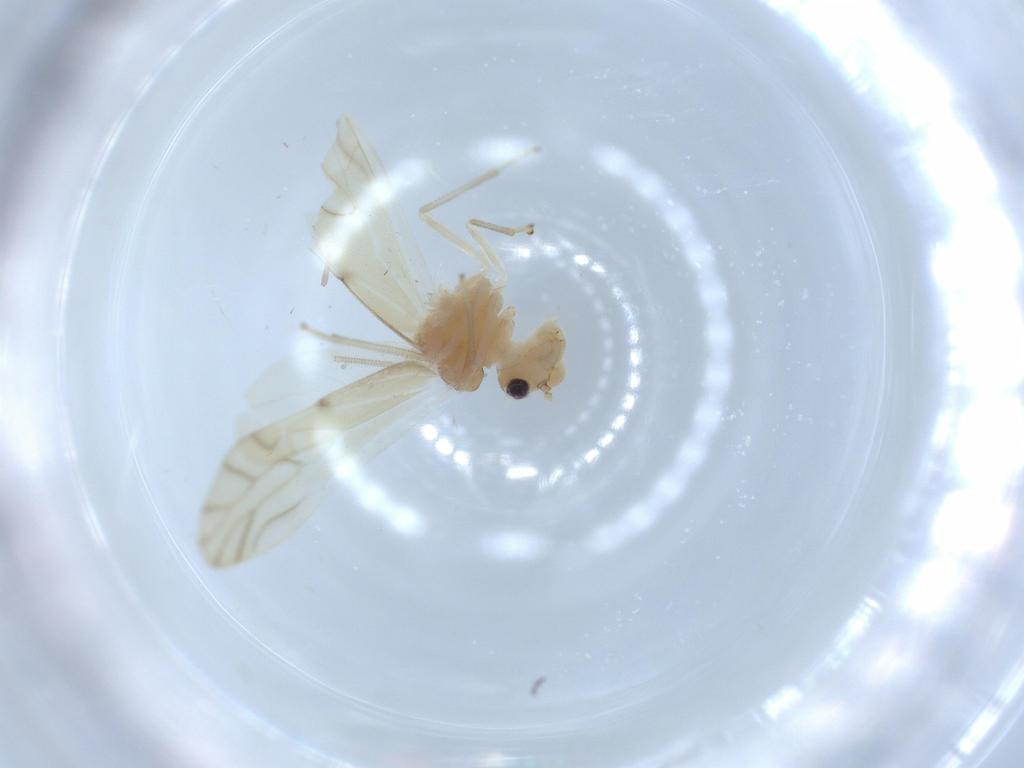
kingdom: Animalia
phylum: Arthropoda
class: Insecta
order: Psocodea
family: Caeciliusidae
